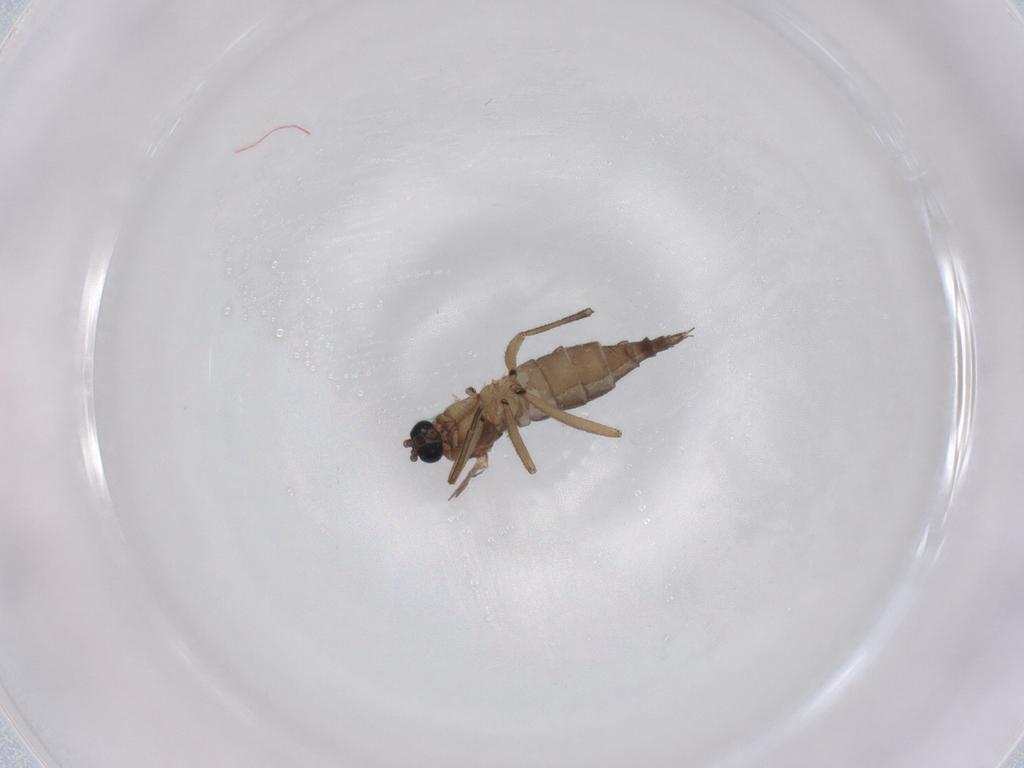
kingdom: Animalia
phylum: Arthropoda
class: Insecta
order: Diptera
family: Sciaridae
